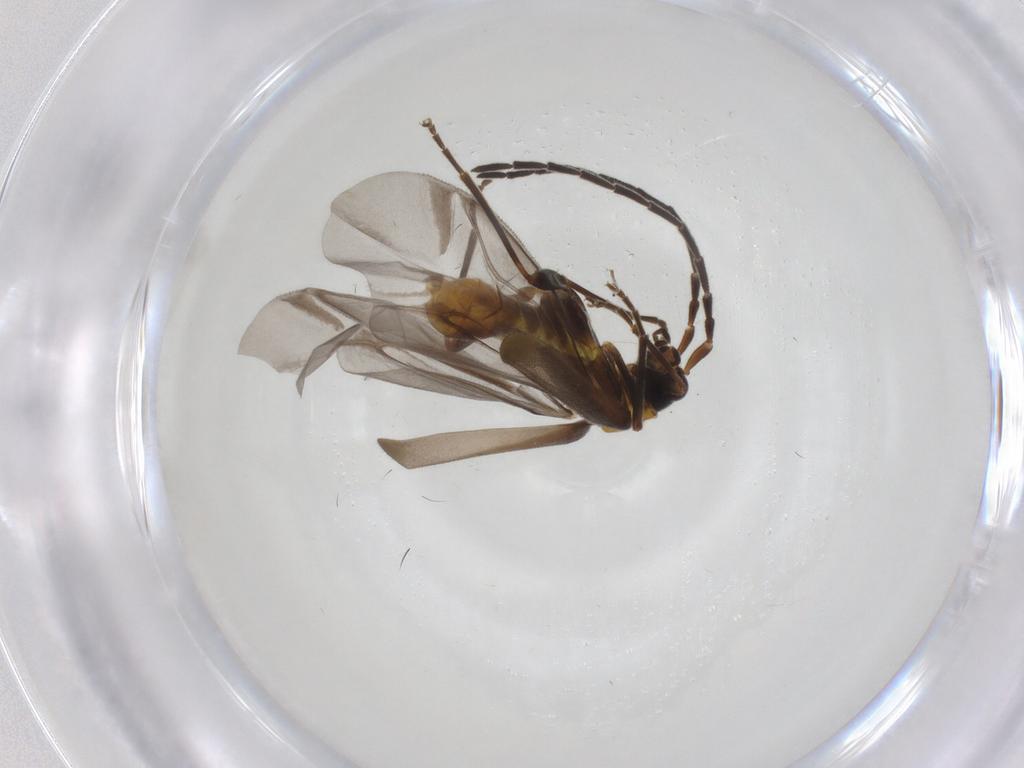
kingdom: Animalia
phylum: Arthropoda
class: Insecta
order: Coleoptera
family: Cantharidae
